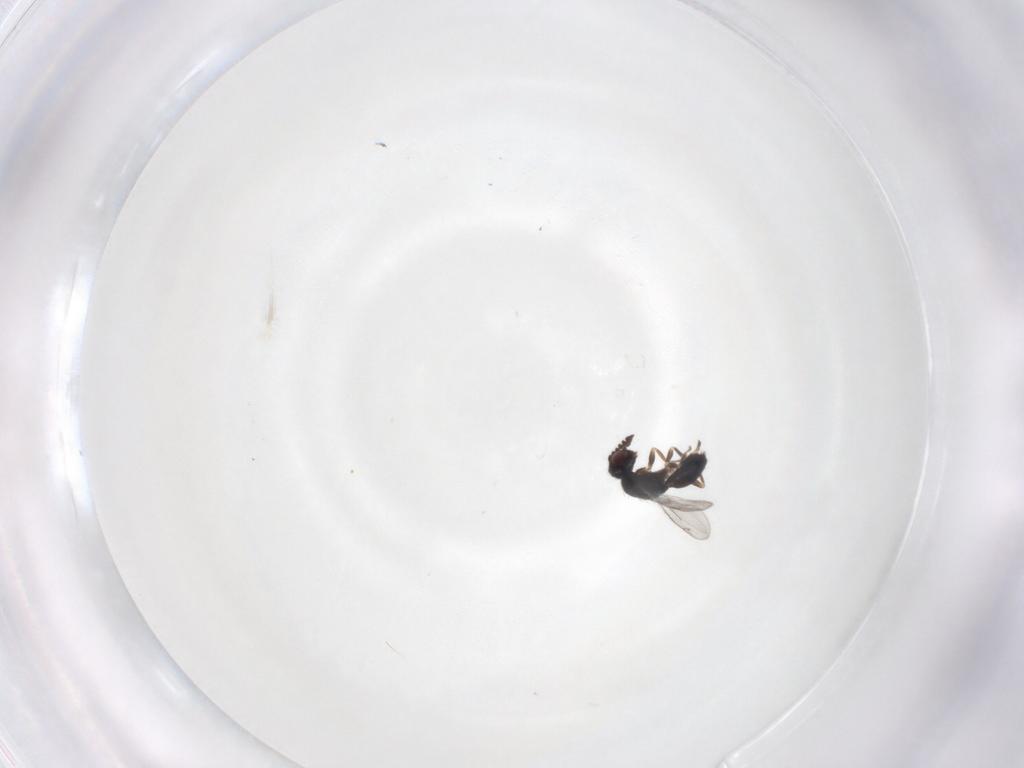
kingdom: Animalia
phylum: Arthropoda
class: Insecta
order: Hymenoptera
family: Eulophidae
